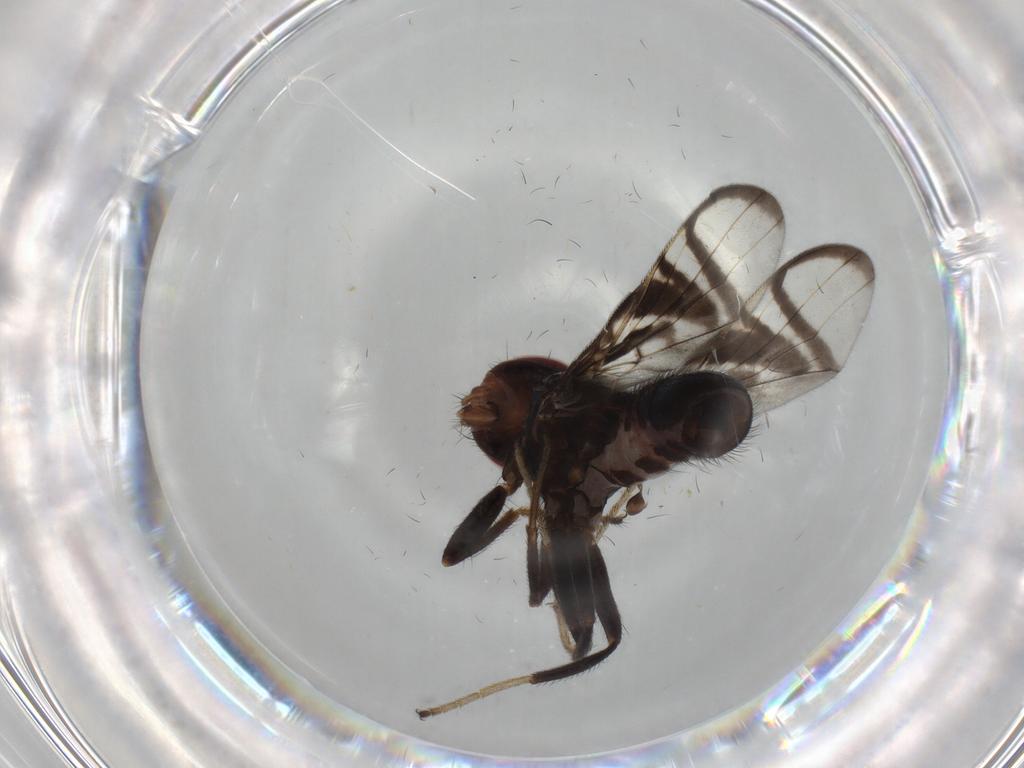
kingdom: Animalia
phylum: Arthropoda
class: Insecta
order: Diptera
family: Phoridae
